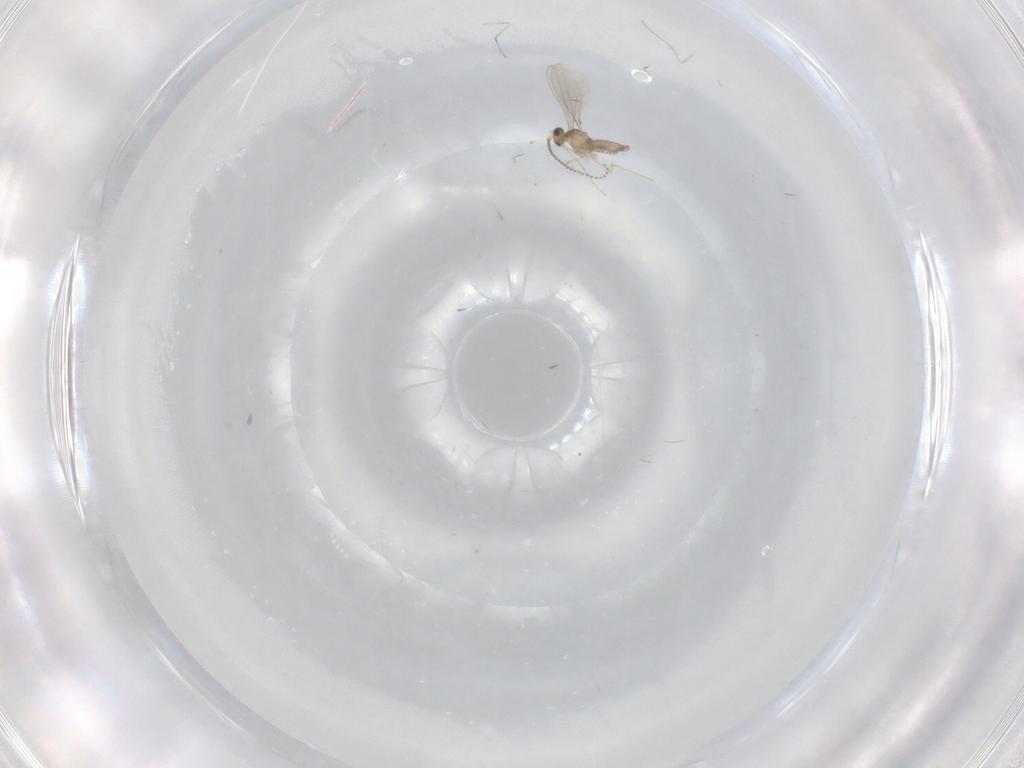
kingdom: Animalia
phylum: Arthropoda
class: Insecta
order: Diptera
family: Cecidomyiidae
